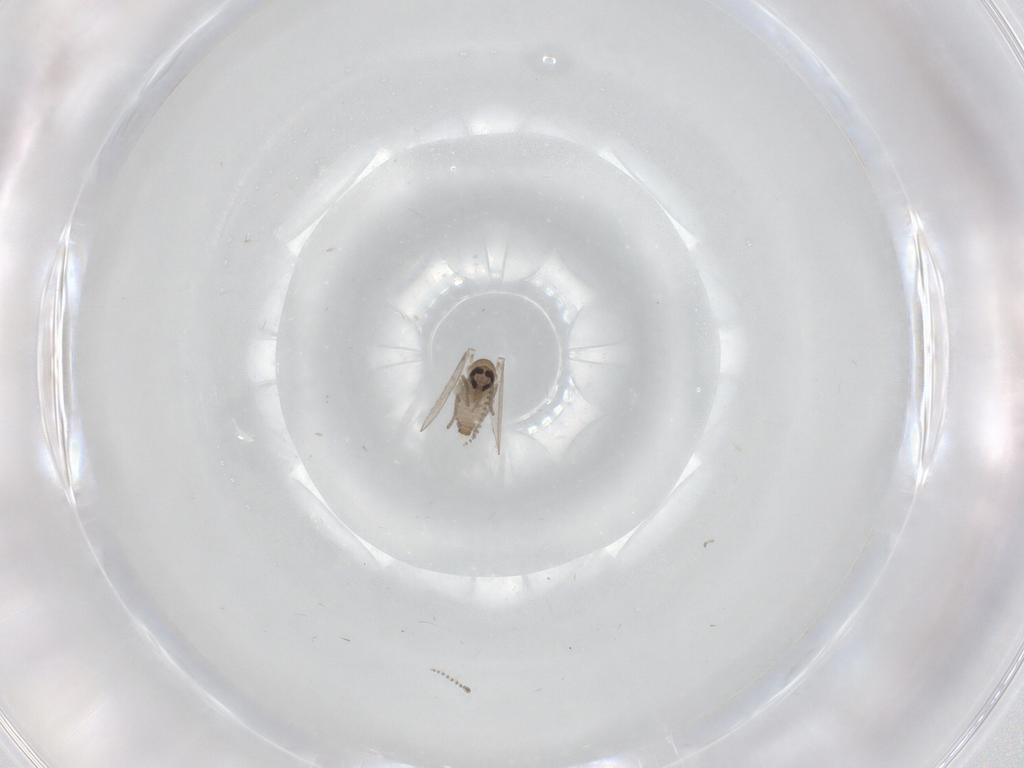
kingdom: Animalia
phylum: Arthropoda
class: Insecta
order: Diptera
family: Psychodidae
